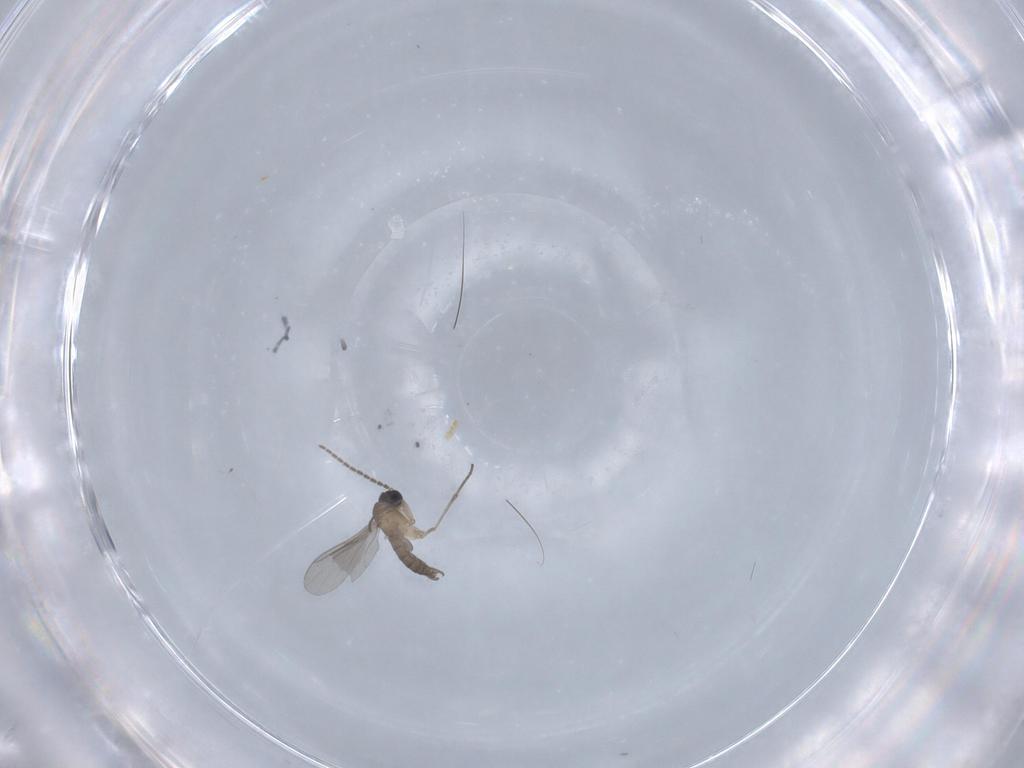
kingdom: Animalia
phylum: Arthropoda
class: Insecta
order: Diptera
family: Sciaridae
